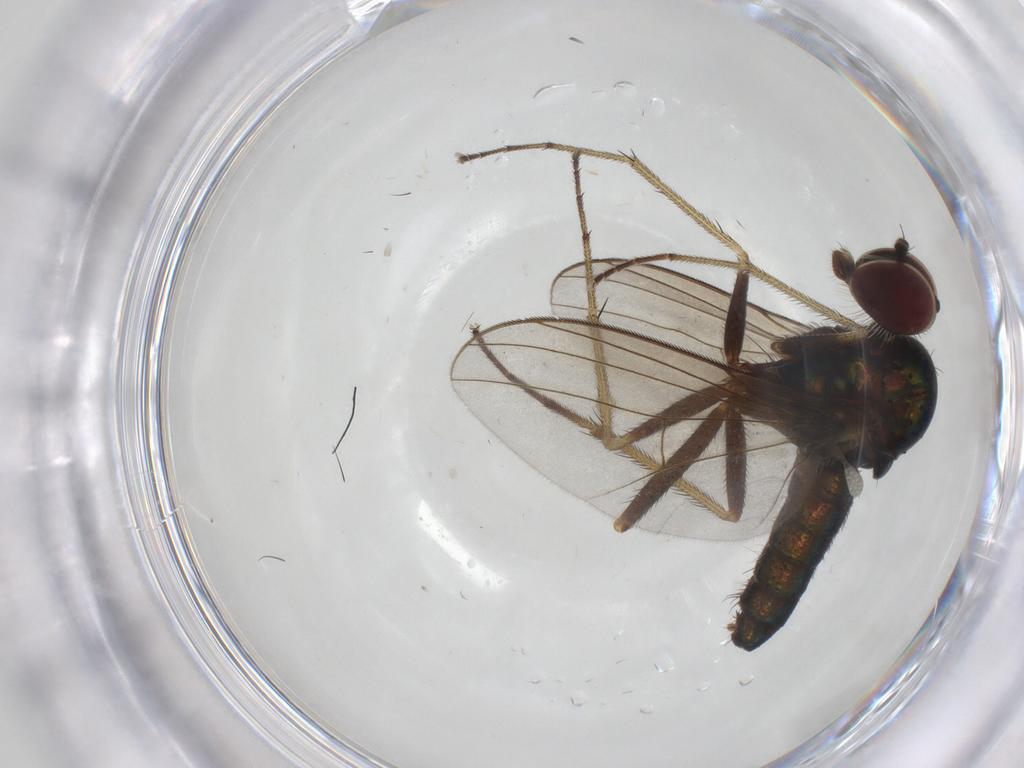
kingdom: Animalia
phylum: Arthropoda
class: Insecta
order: Diptera
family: Dolichopodidae
